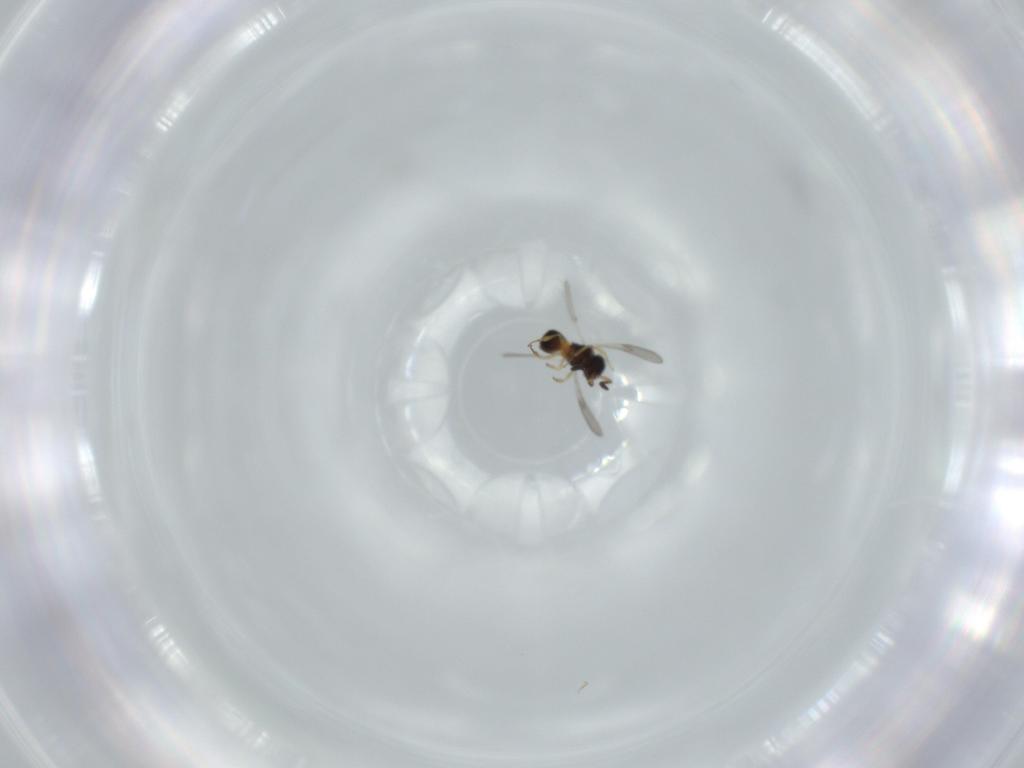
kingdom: Animalia
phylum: Arthropoda
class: Insecta
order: Hymenoptera
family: Scelionidae
